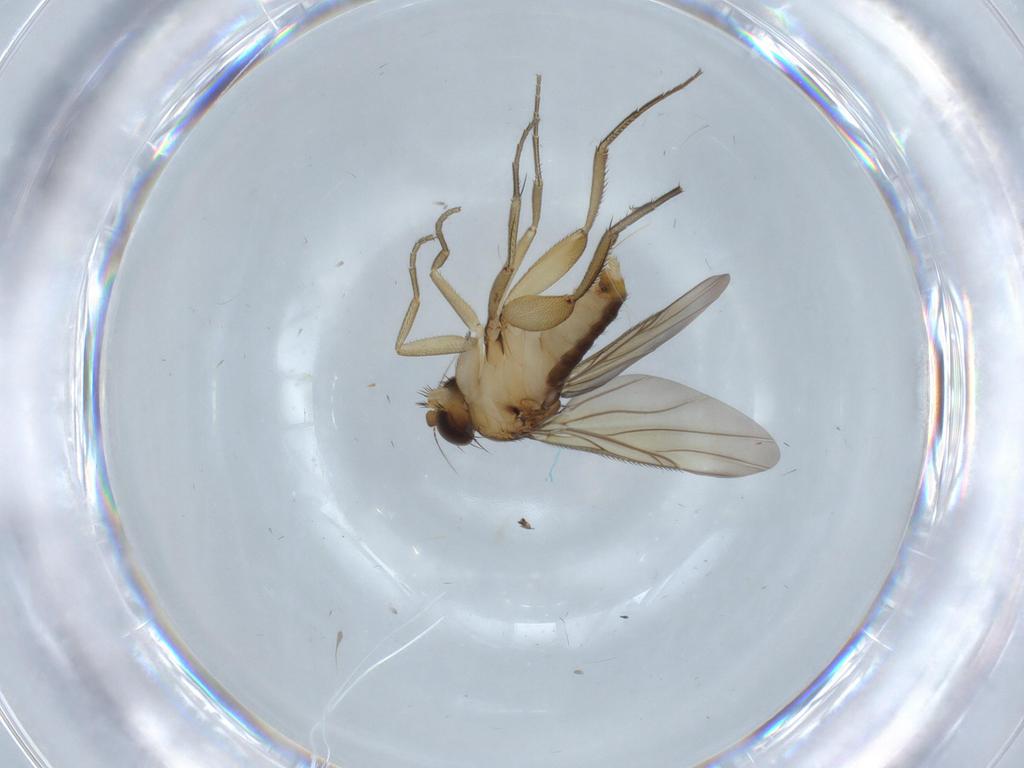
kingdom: Animalia
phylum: Arthropoda
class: Insecta
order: Diptera
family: Phoridae
